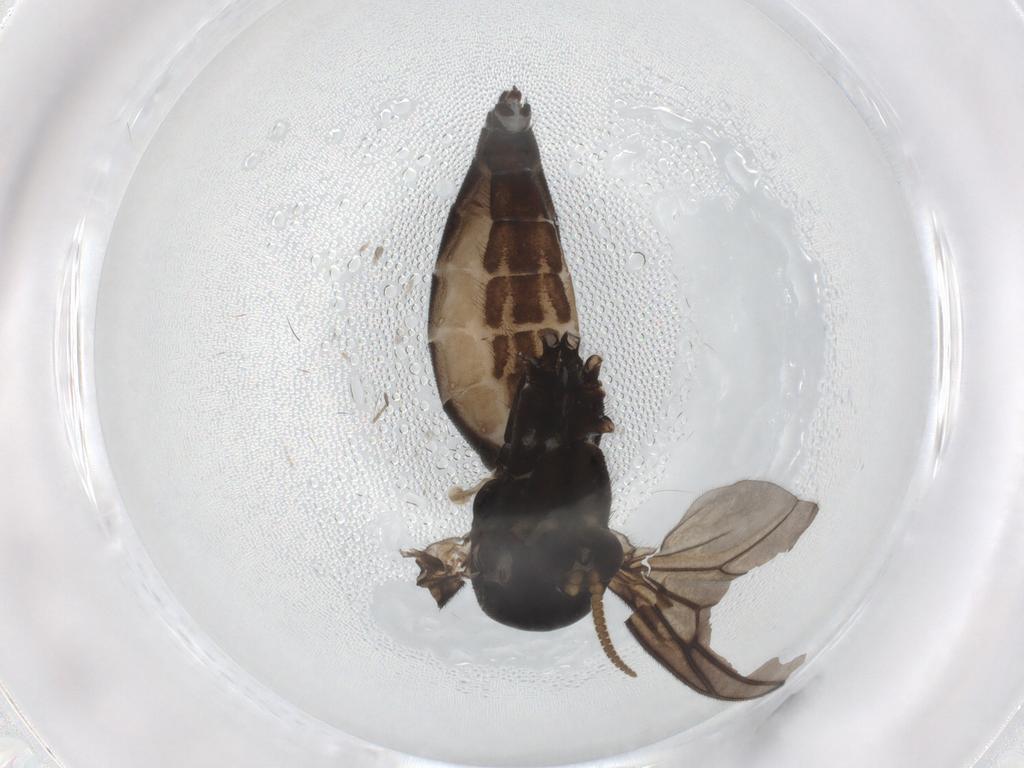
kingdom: Animalia
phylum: Arthropoda
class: Insecta
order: Diptera
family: Mycetophilidae
